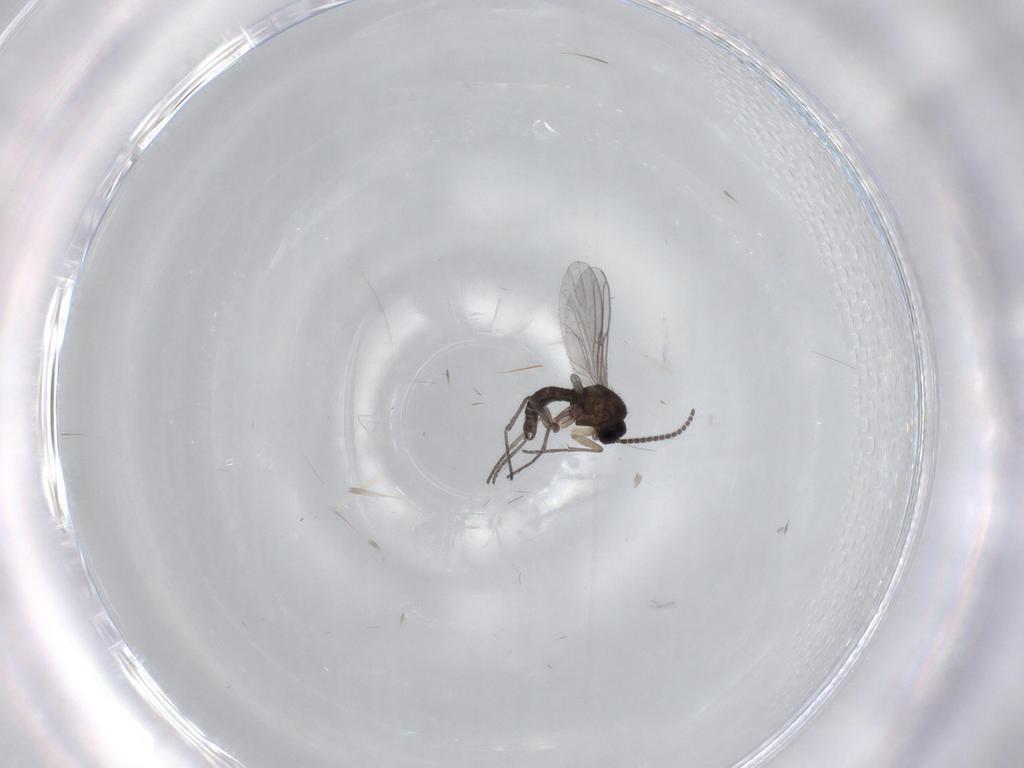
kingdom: Animalia
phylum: Arthropoda
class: Insecta
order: Diptera
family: Sciaridae
